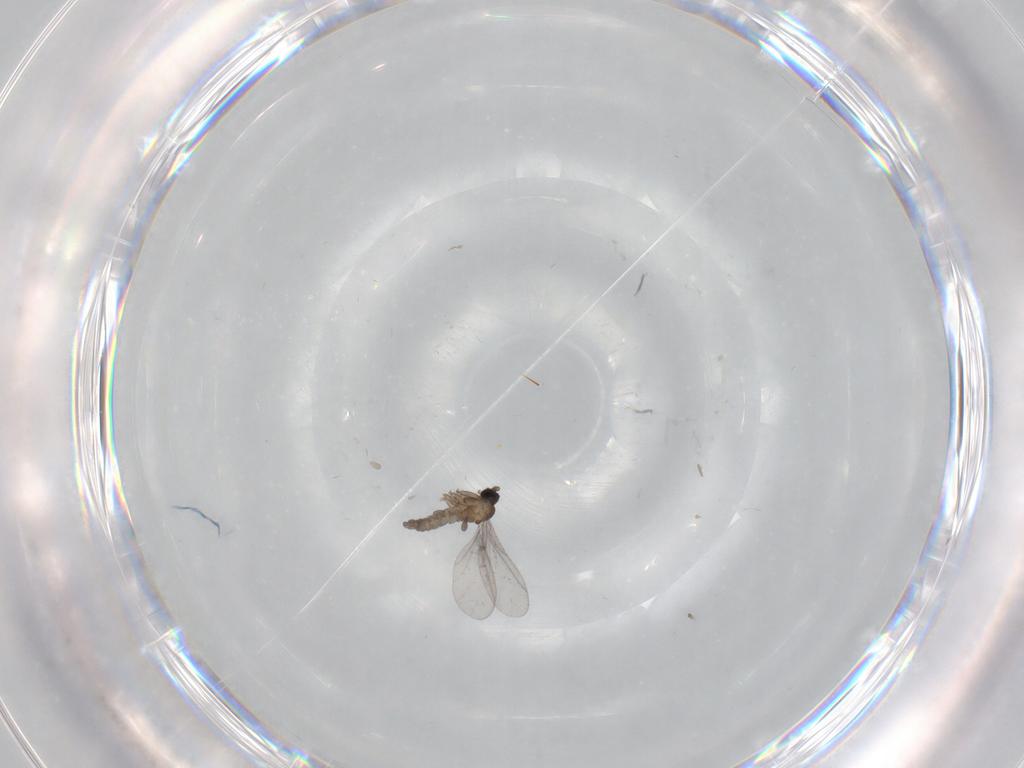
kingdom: Animalia
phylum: Arthropoda
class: Insecta
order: Diptera
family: Sciaridae
